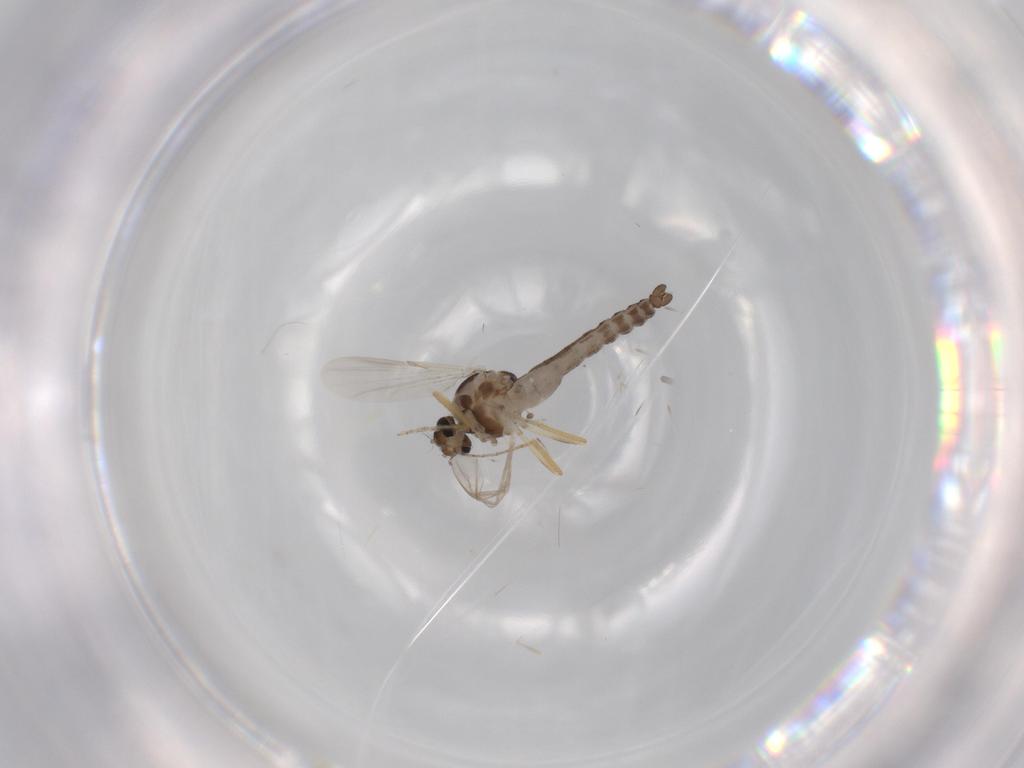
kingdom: Animalia
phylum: Arthropoda
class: Insecta
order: Diptera
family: Ceratopogonidae
